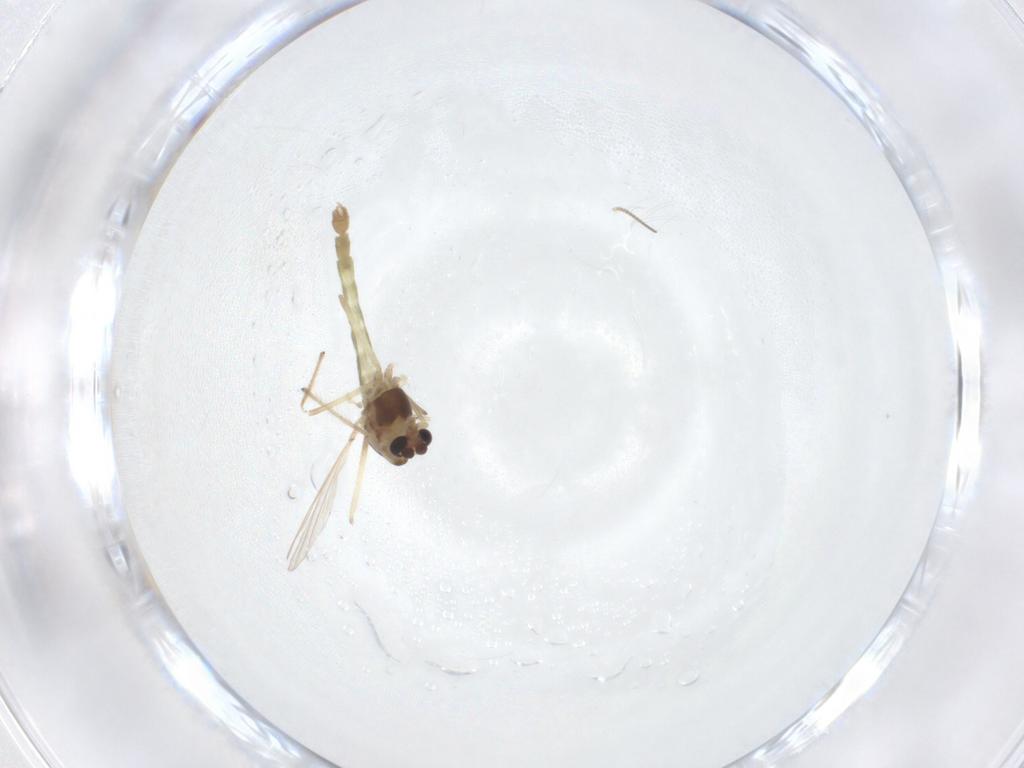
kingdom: Animalia
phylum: Arthropoda
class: Insecta
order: Diptera
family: Chironomidae
